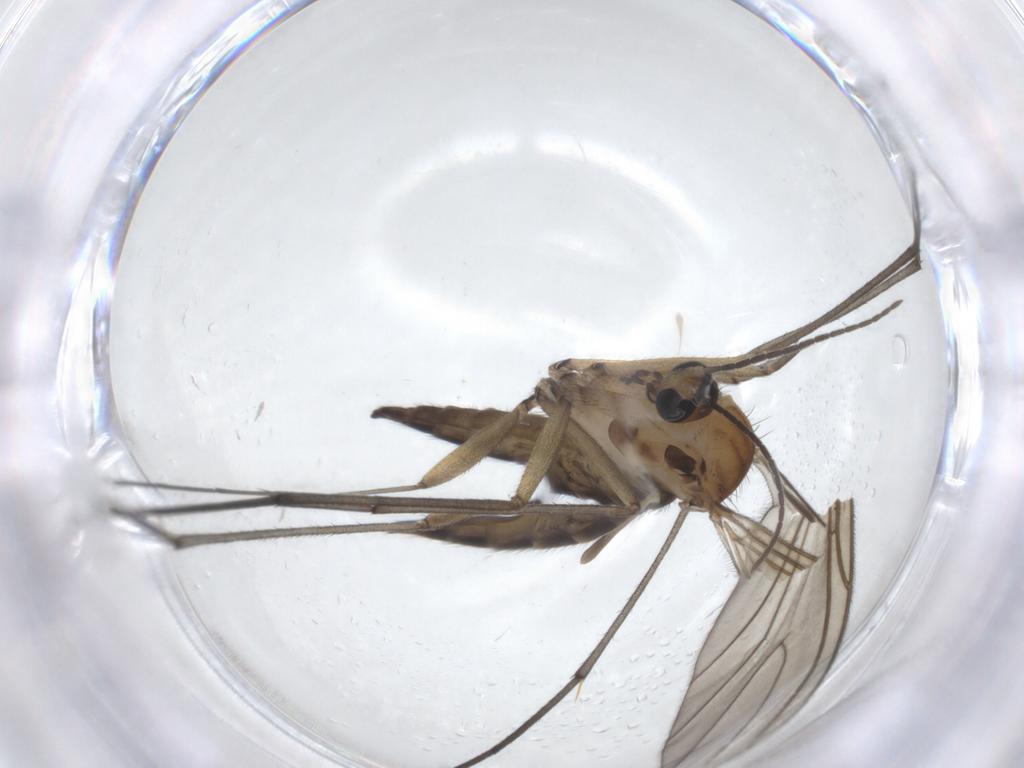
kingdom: Animalia
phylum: Arthropoda
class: Insecta
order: Diptera
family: Sciaridae
